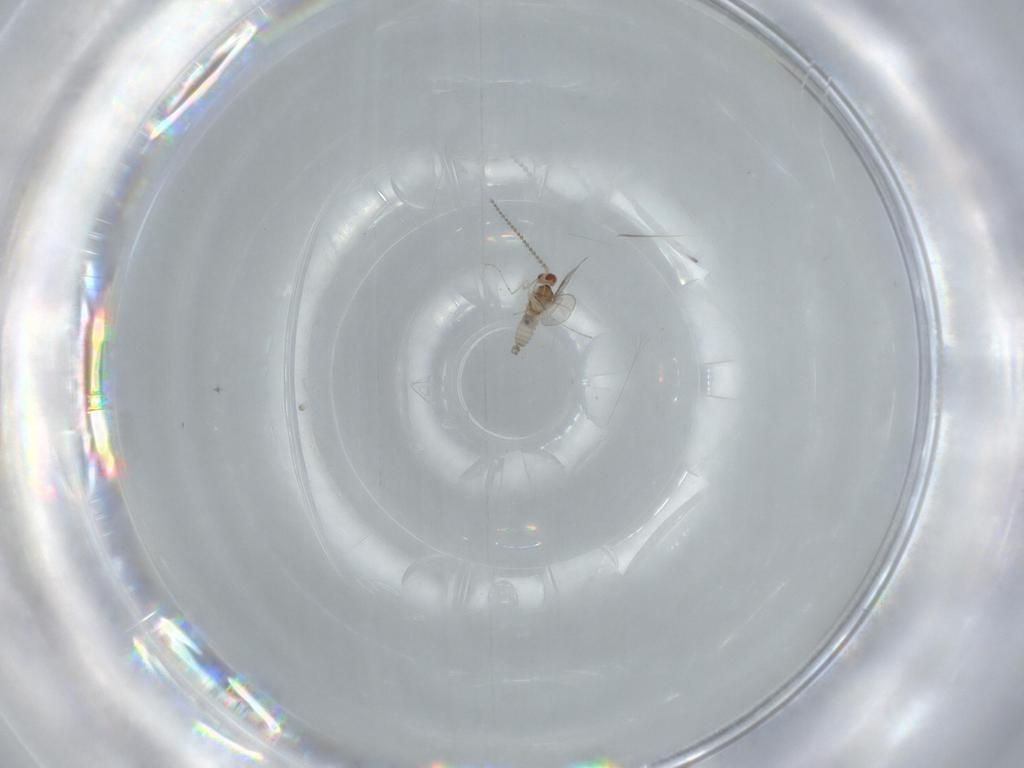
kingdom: Animalia
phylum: Arthropoda
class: Insecta
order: Diptera
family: Cecidomyiidae
